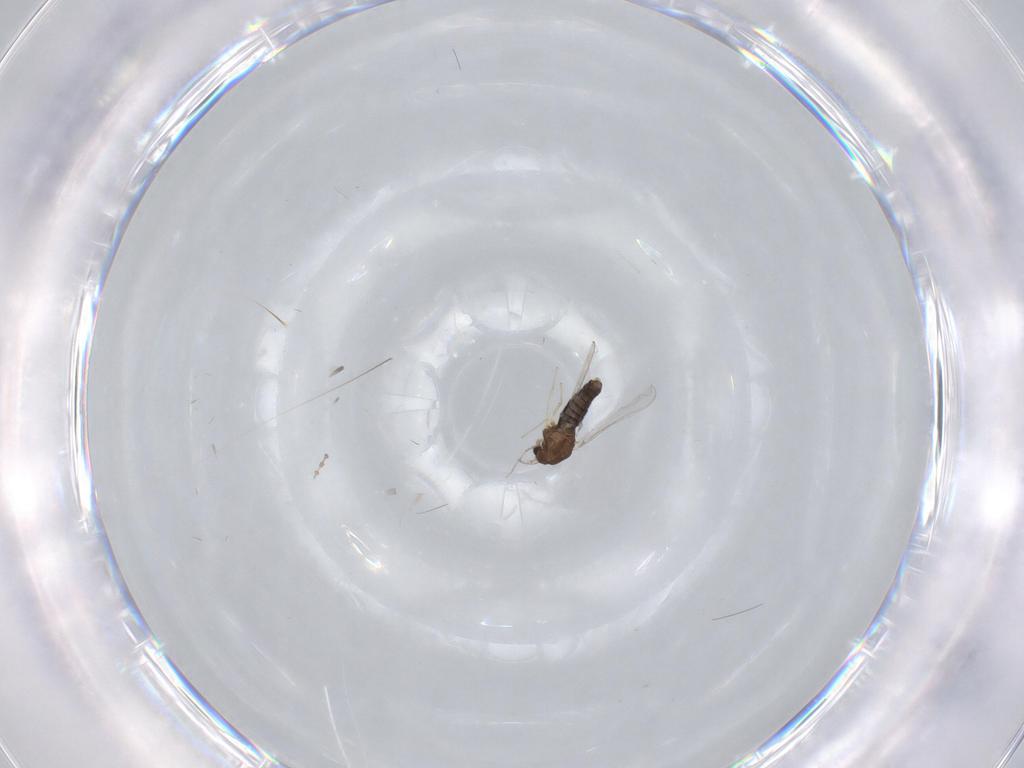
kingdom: Animalia
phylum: Arthropoda
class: Insecta
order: Diptera
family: Chironomidae
